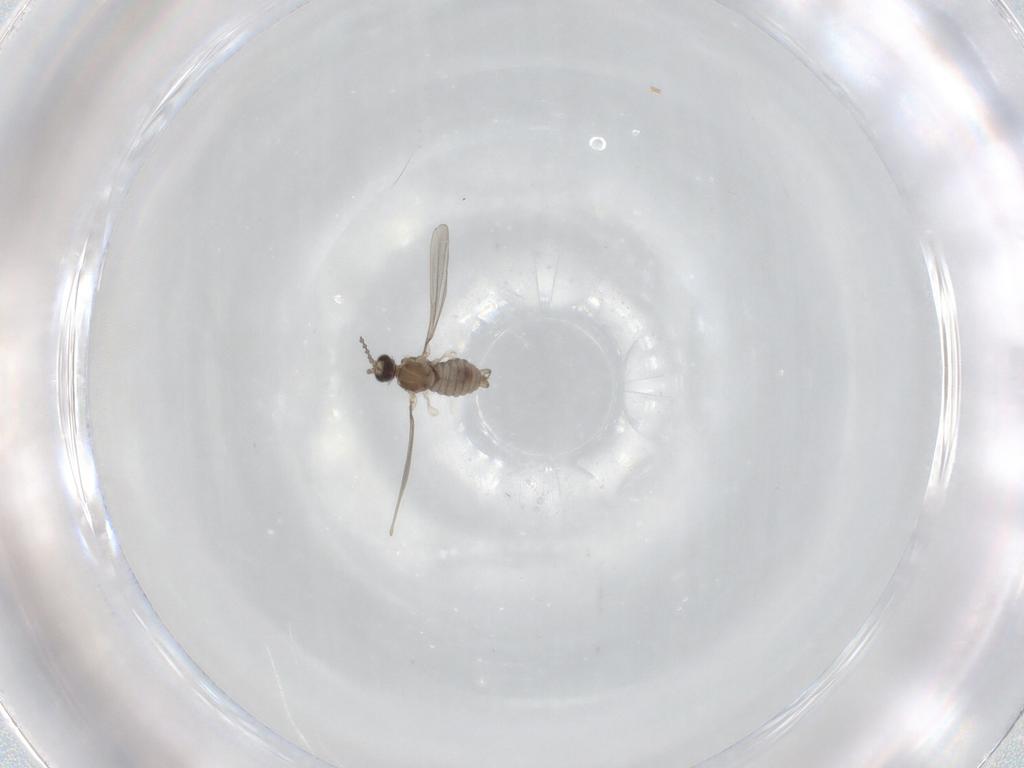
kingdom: Animalia
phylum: Arthropoda
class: Insecta
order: Diptera
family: Cecidomyiidae
